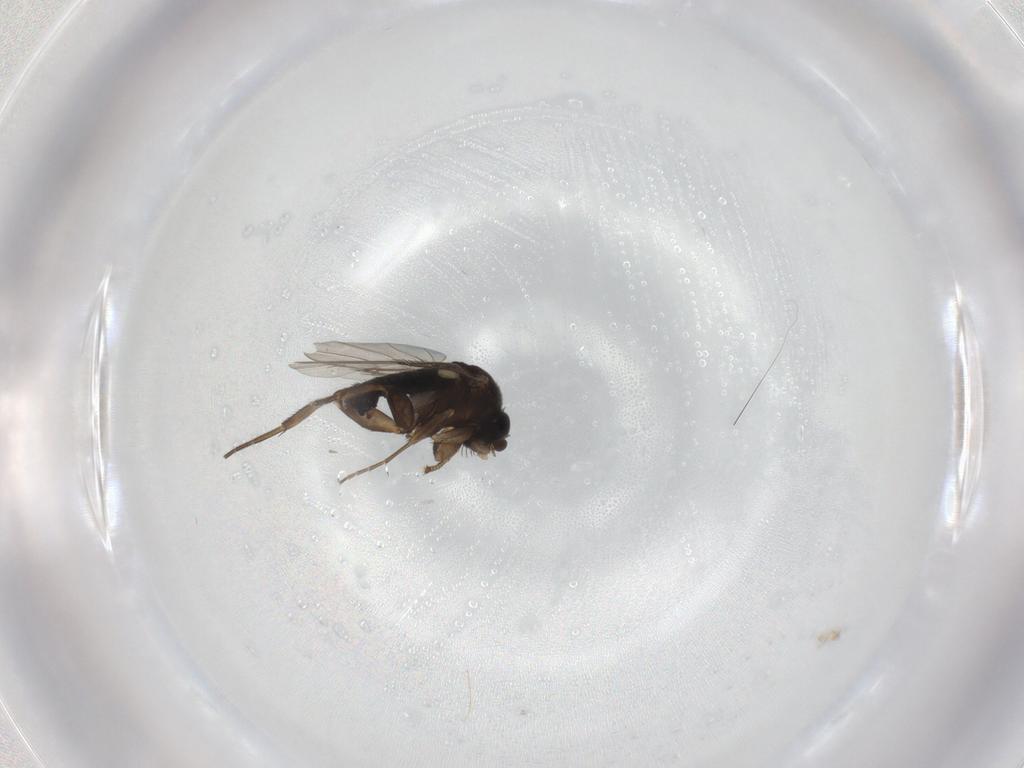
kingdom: Animalia
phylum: Arthropoda
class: Insecta
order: Diptera
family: Phoridae
